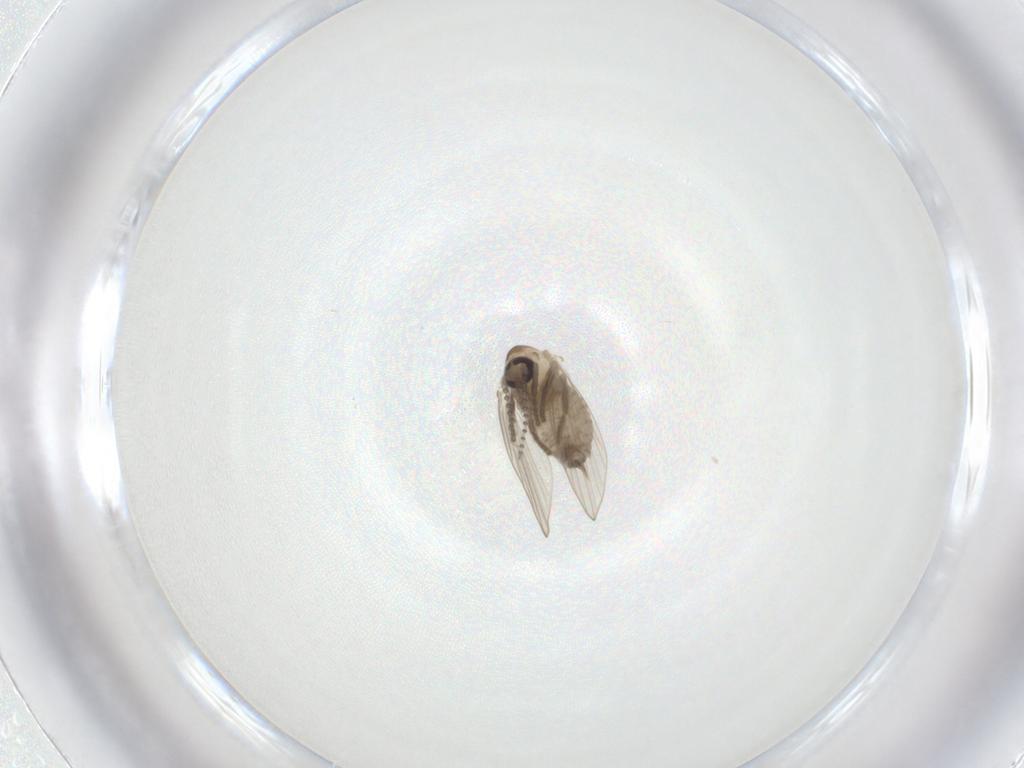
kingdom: Animalia
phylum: Arthropoda
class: Insecta
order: Diptera
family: Psychodidae
